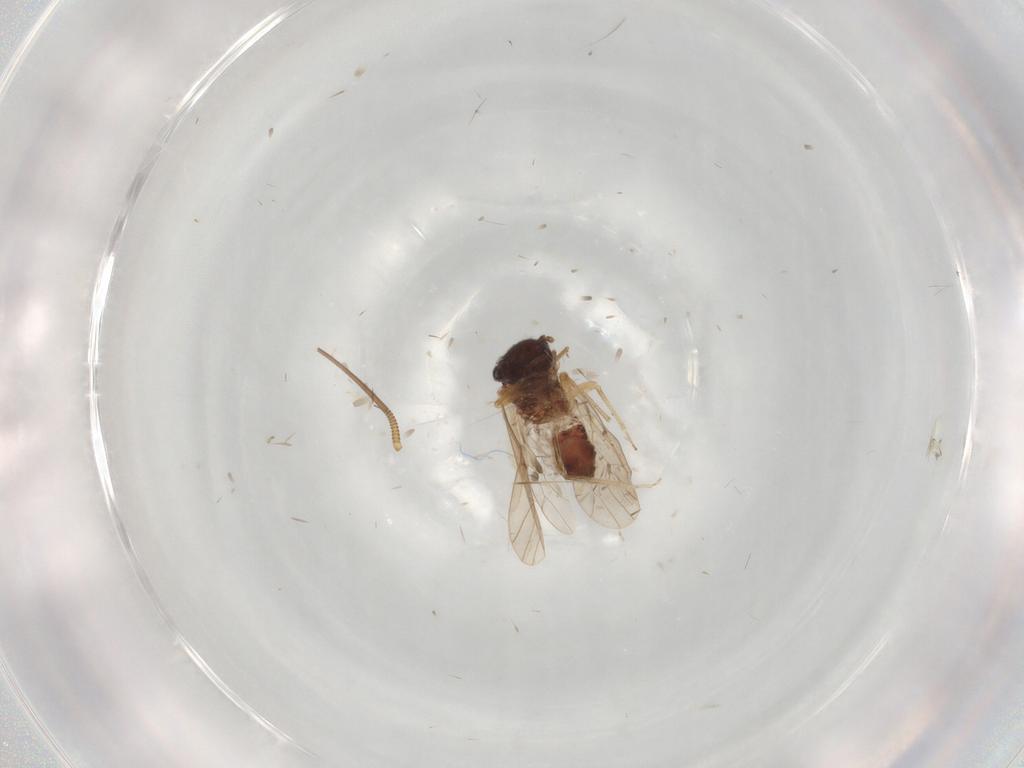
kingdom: Animalia
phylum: Arthropoda
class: Insecta
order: Psocodea
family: Ectopsocidae
